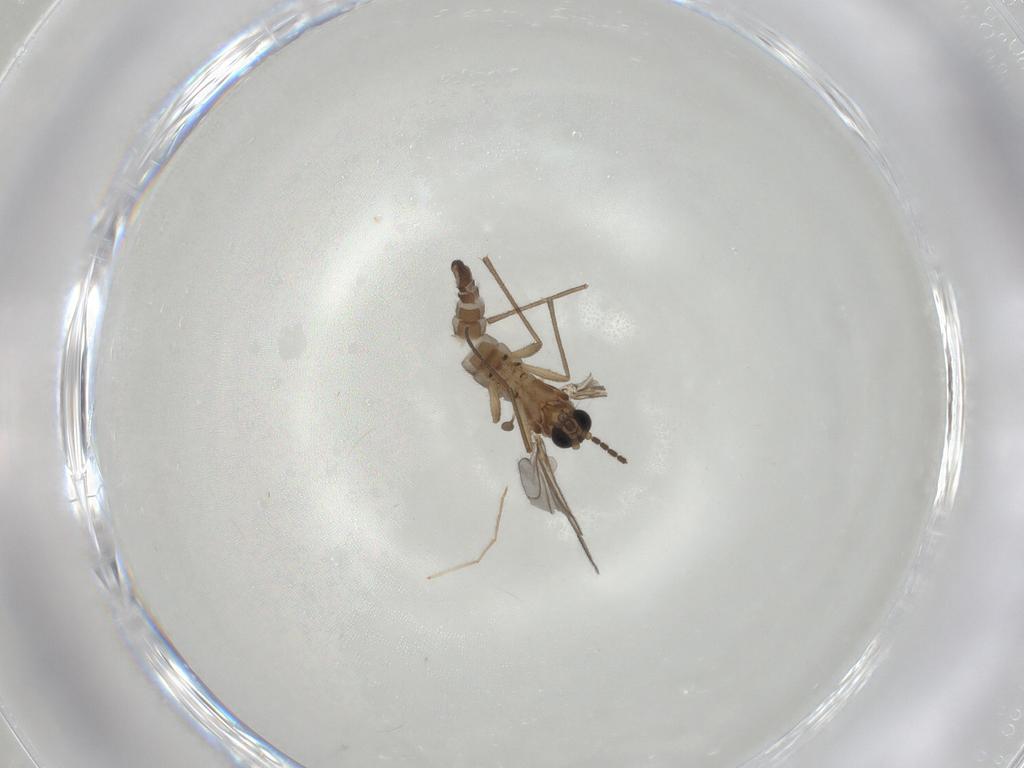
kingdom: Animalia
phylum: Arthropoda
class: Insecta
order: Diptera
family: Sciaridae
